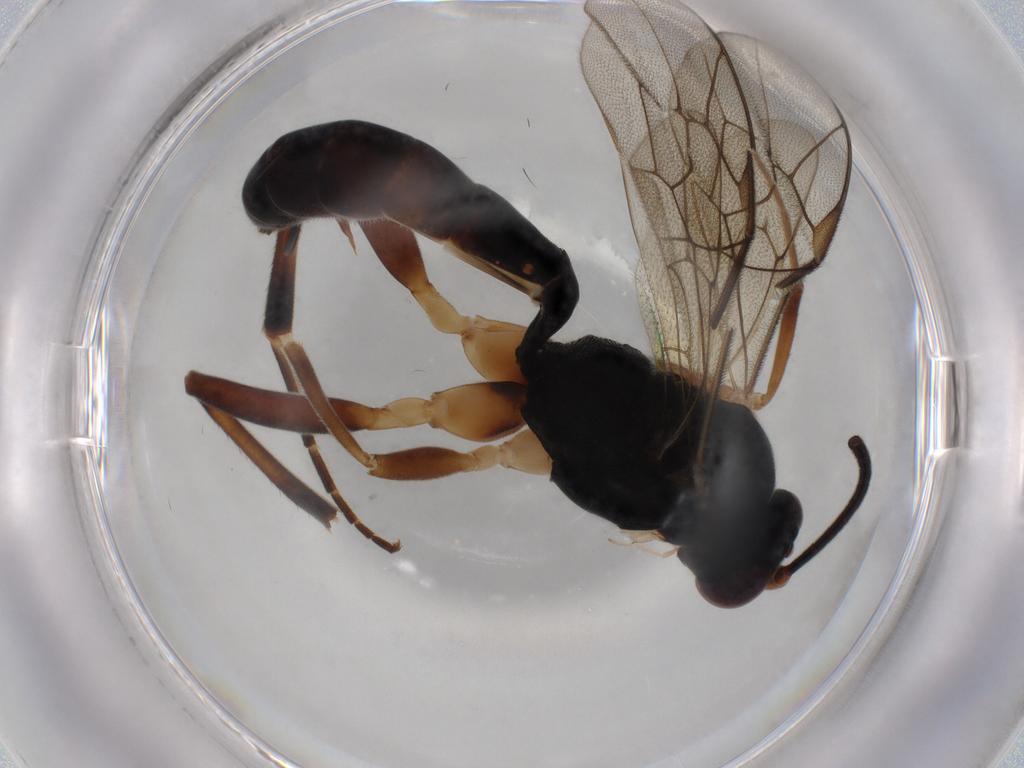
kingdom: Animalia
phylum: Arthropoda
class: Insecta
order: Hymenoptera
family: Ichneumonidae
